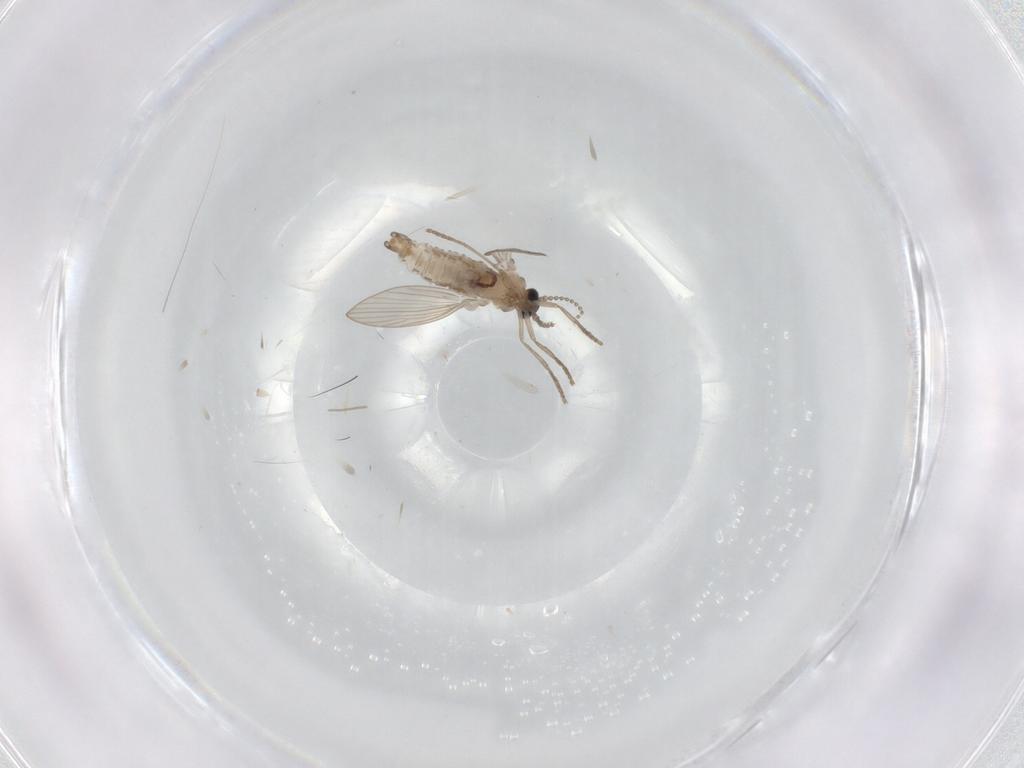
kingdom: Animalia
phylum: Arthropoda
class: Insecta
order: Diptera
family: Psychodidae
